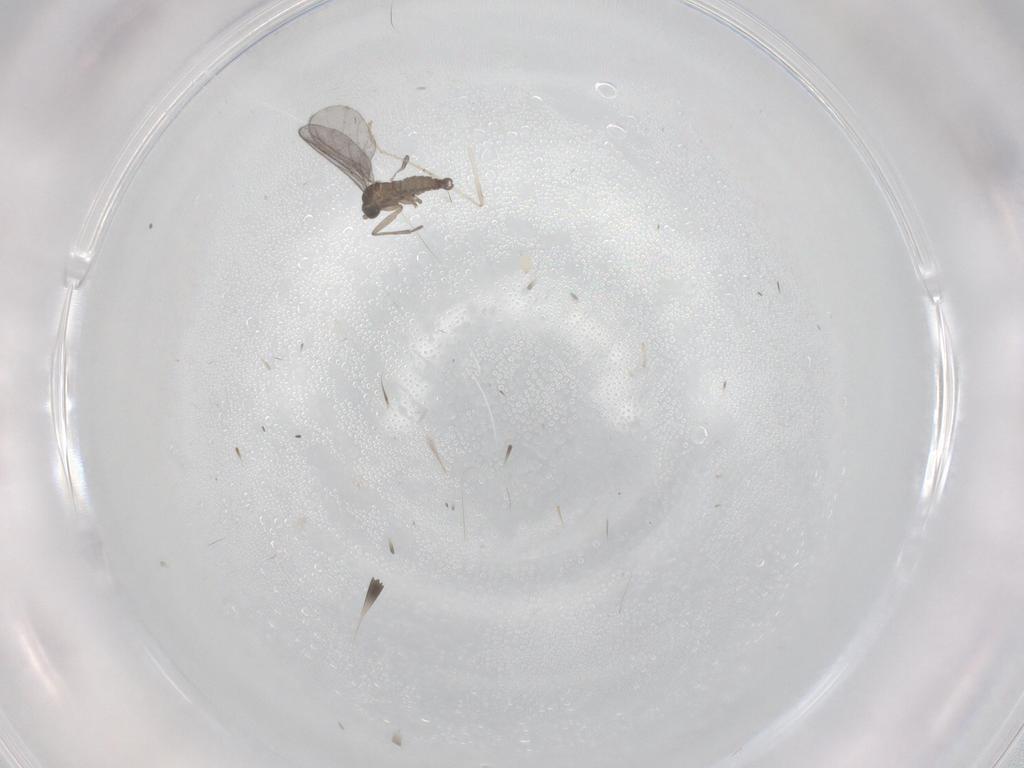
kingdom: Animalia
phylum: Arthropoda
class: Insecta
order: Diptera
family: Sciaridae
